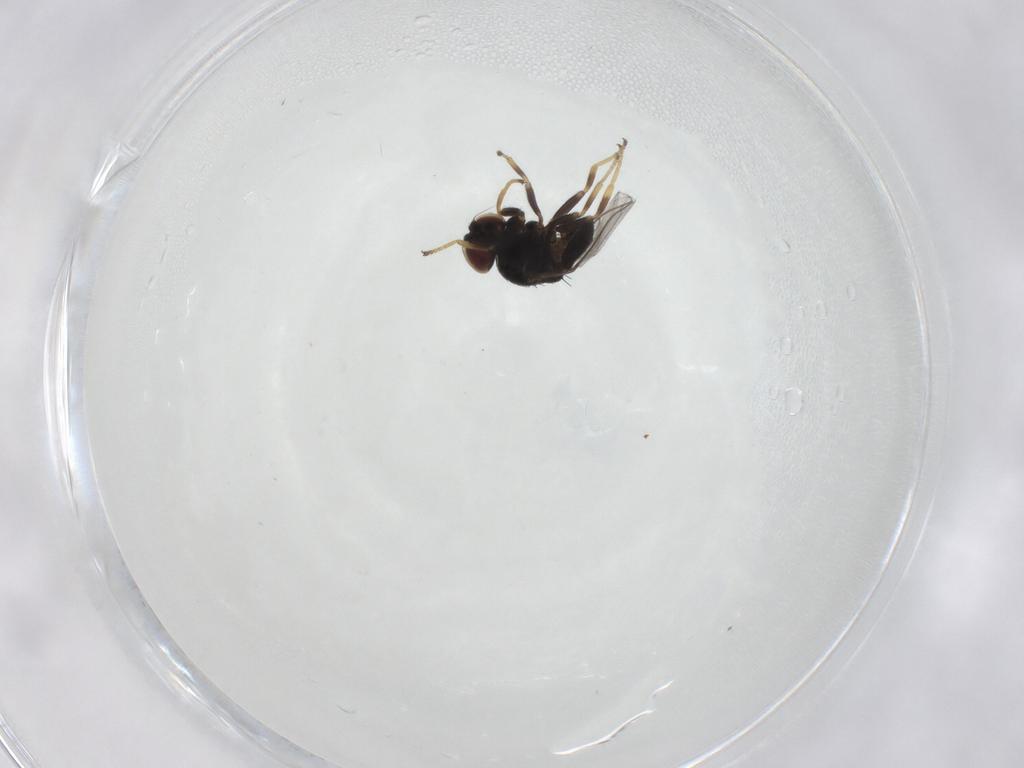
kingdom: Animalia
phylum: Arthropoda
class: Insecta
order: Diptera
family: Chloropidae
